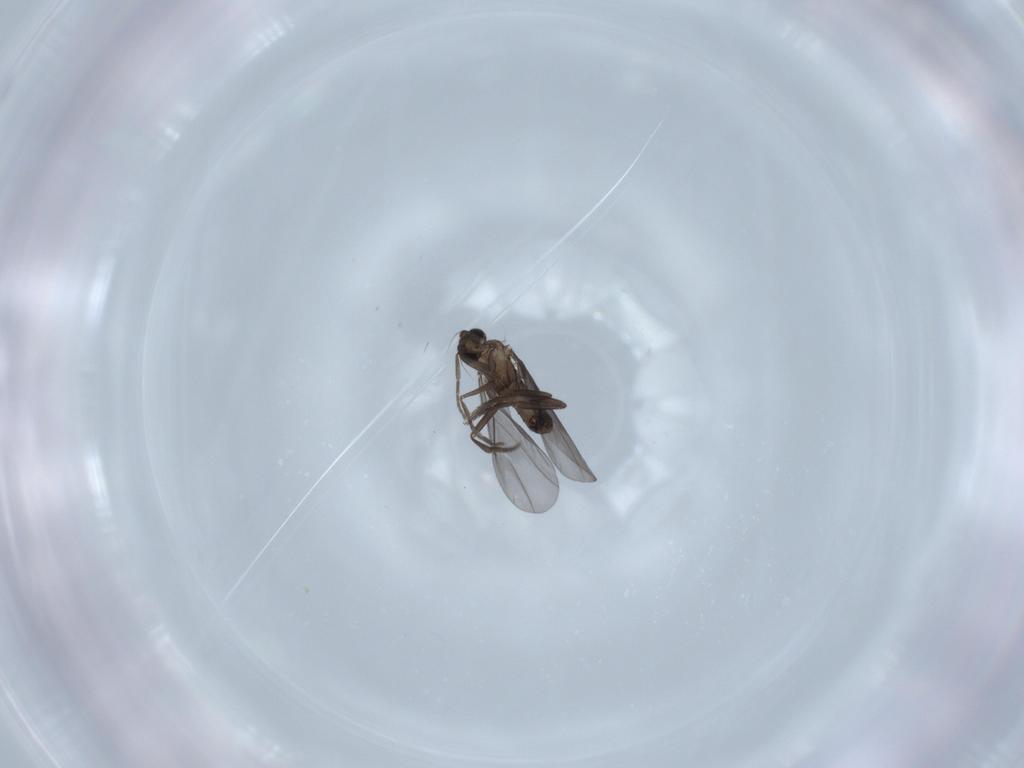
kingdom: Animalia
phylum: Arthropoda
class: Insecta
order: Diptera
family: Phoridae
